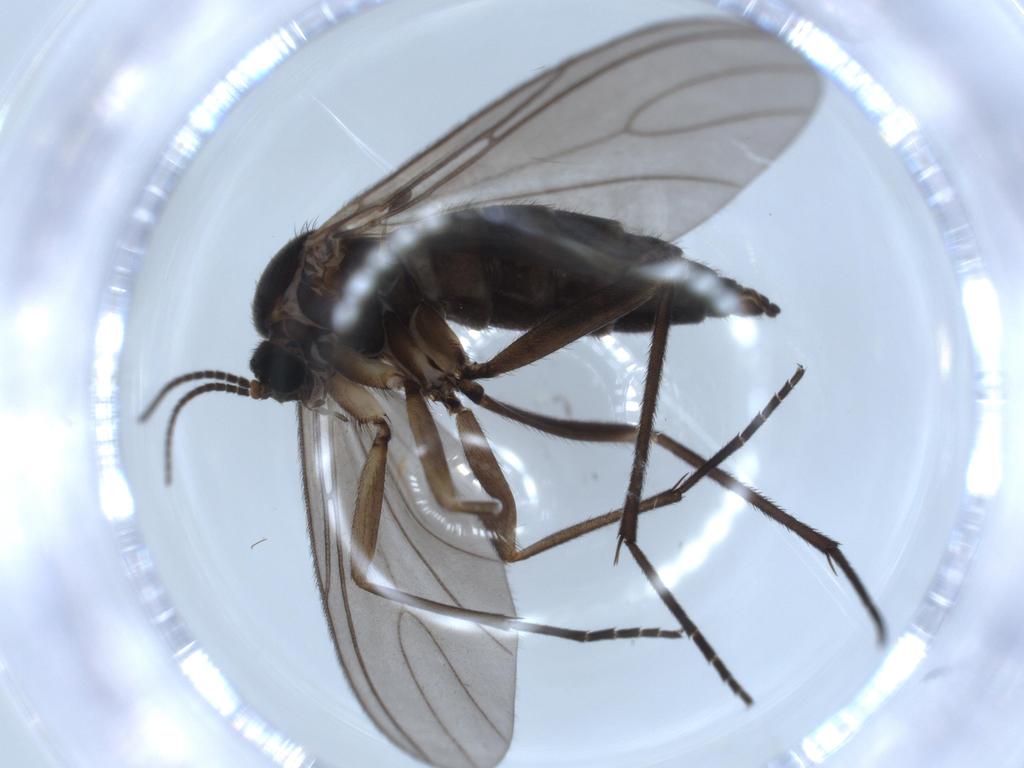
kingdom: Animalia
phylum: Arthropoda
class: Insecta
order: Diptera
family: Sciaridae
